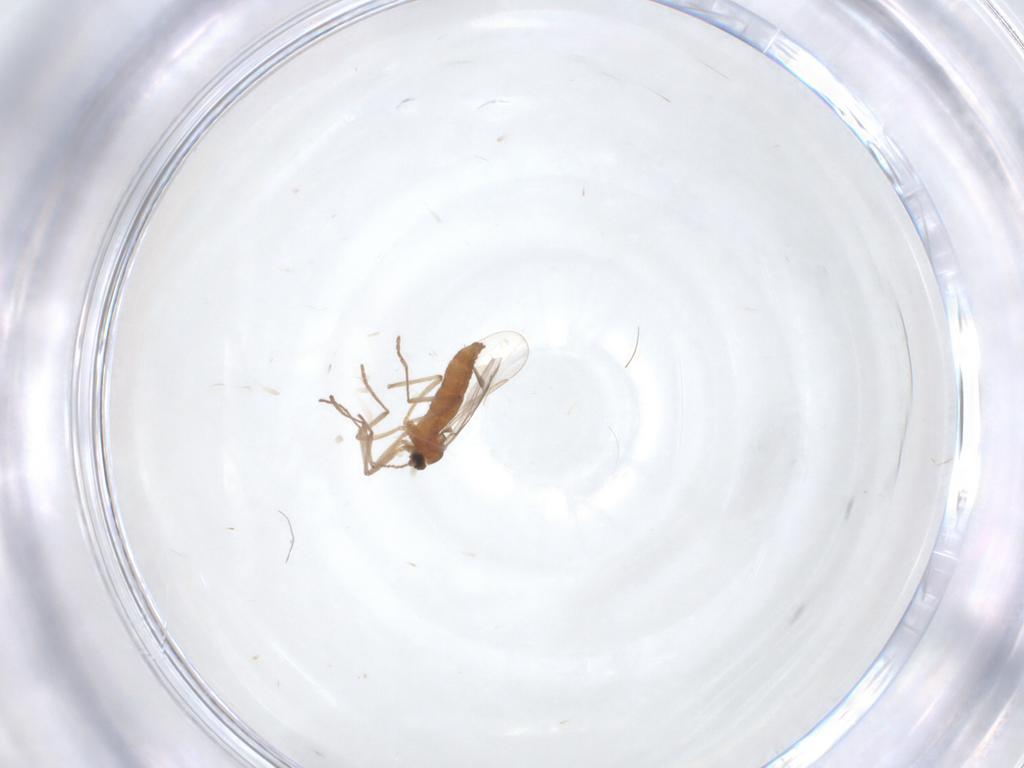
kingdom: Animalia
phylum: Arthropoda
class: Insecta
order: Diptera
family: Cecidomyiidae
